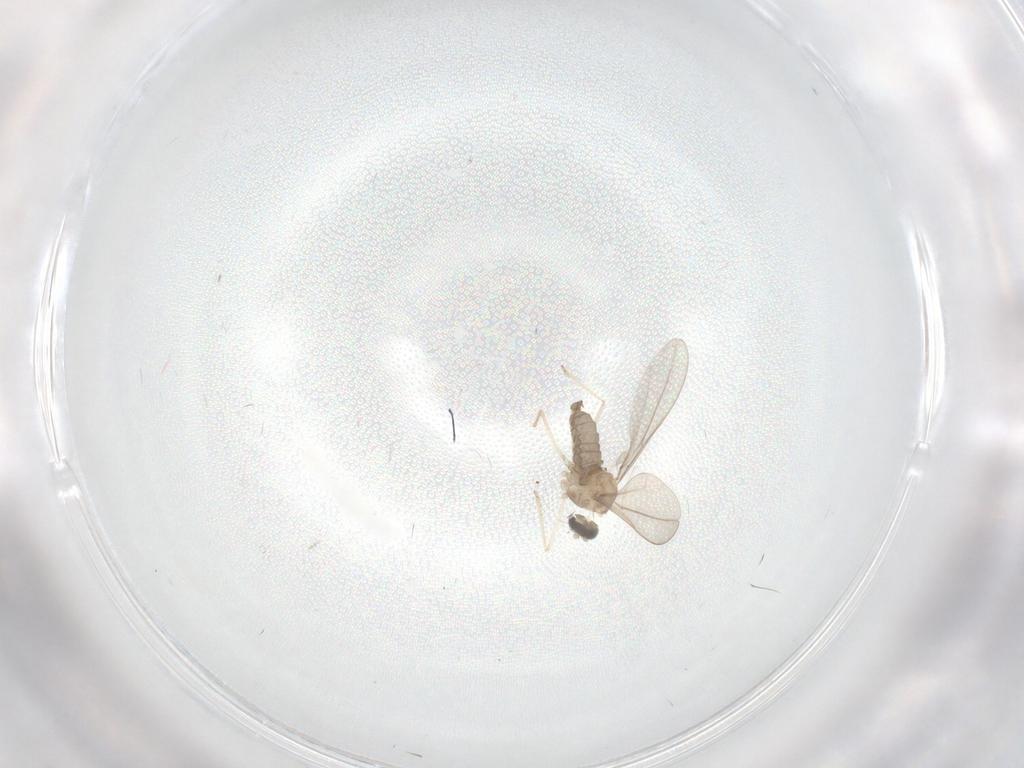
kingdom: Animalia
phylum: Arthropoda
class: Insecta
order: Diptera
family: Cecidomyiidae
